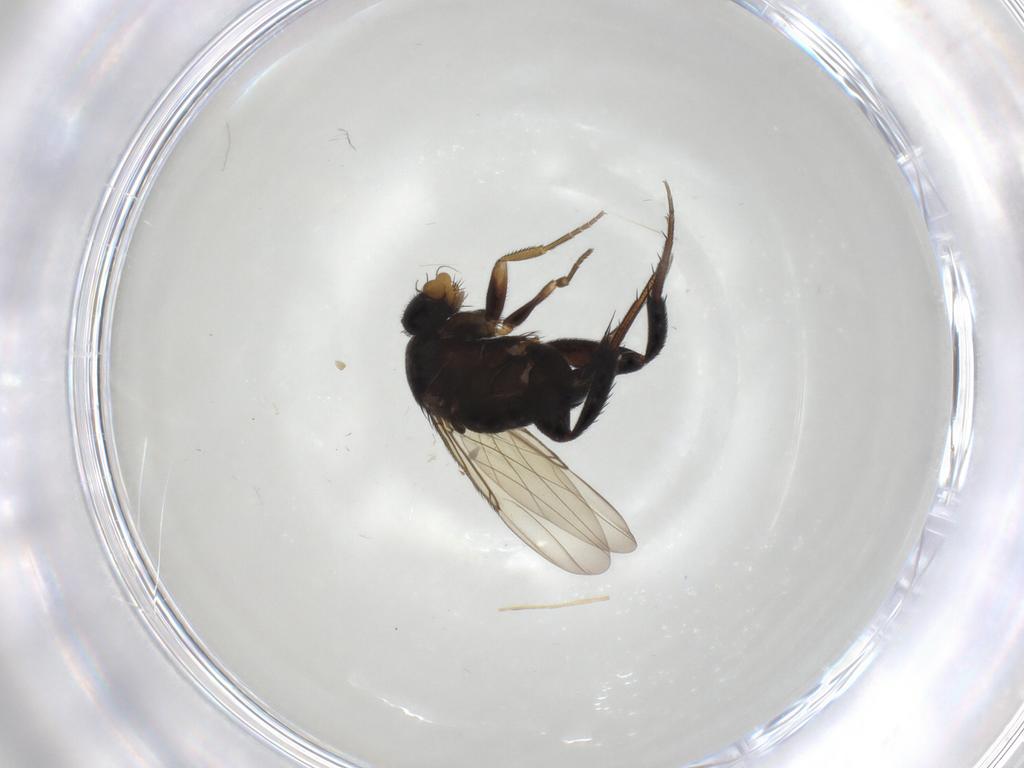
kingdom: Animalia
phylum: Arthropoda
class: Insecta
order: Diptera
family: Phoridae
